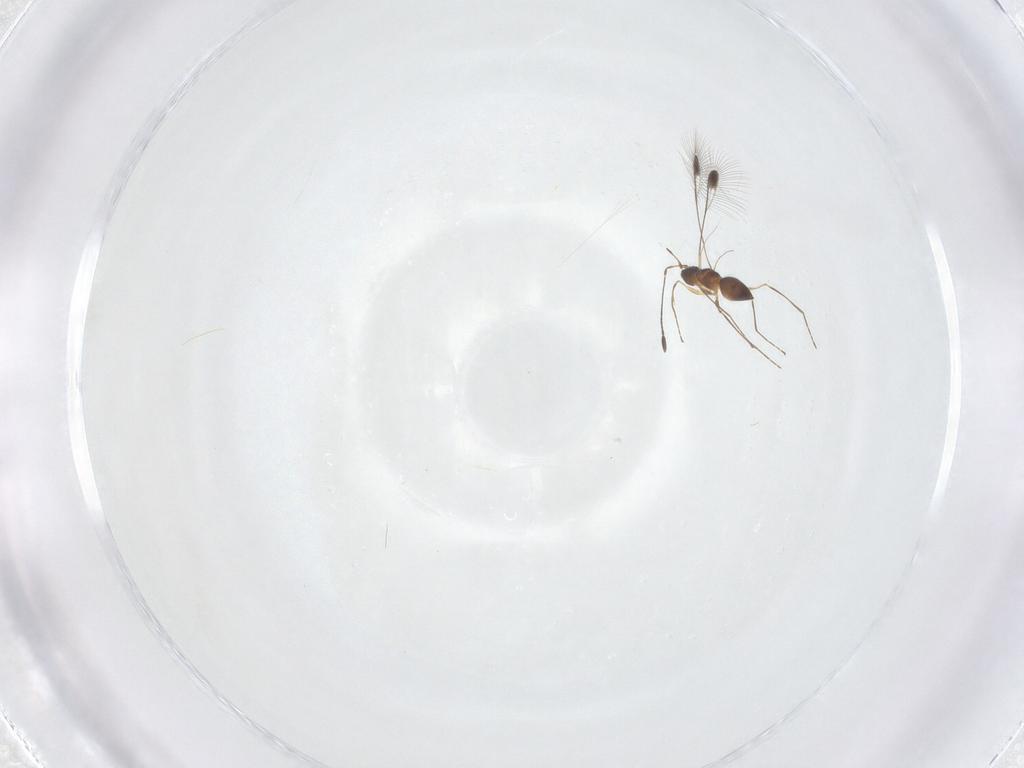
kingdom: Animalia
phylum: Arthropoda
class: Insecta
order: Hymenoptera
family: Mymaridae
